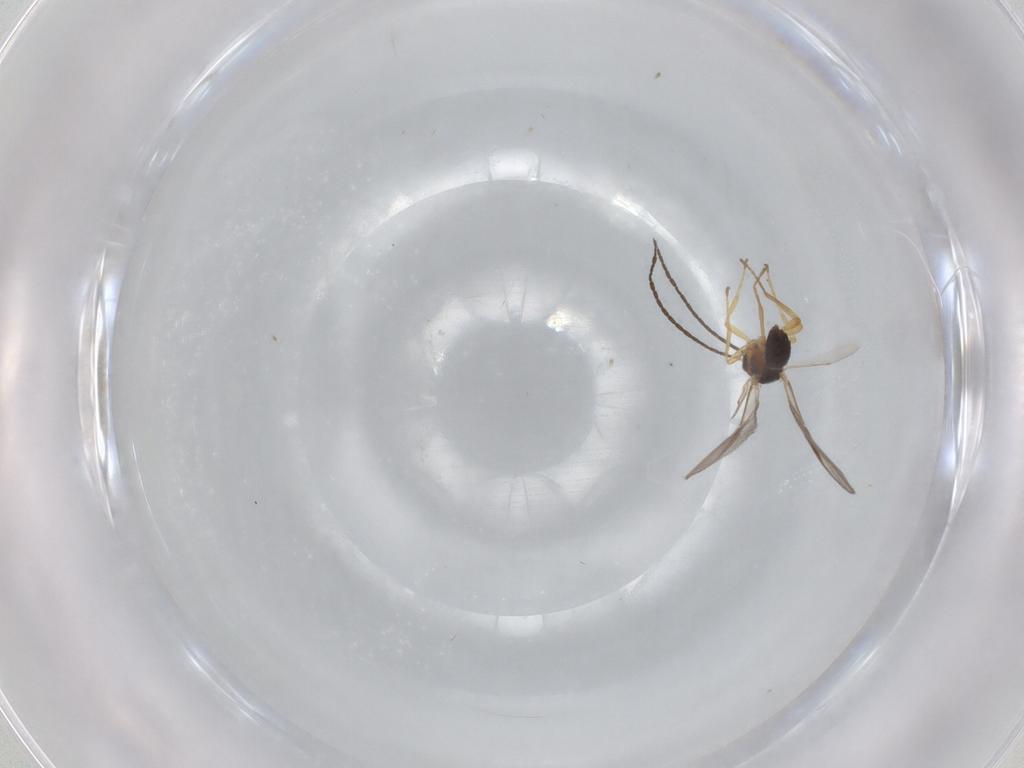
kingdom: Animalia
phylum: Arthropoda
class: Insecta
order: Hymenoptera
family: Braconidae
